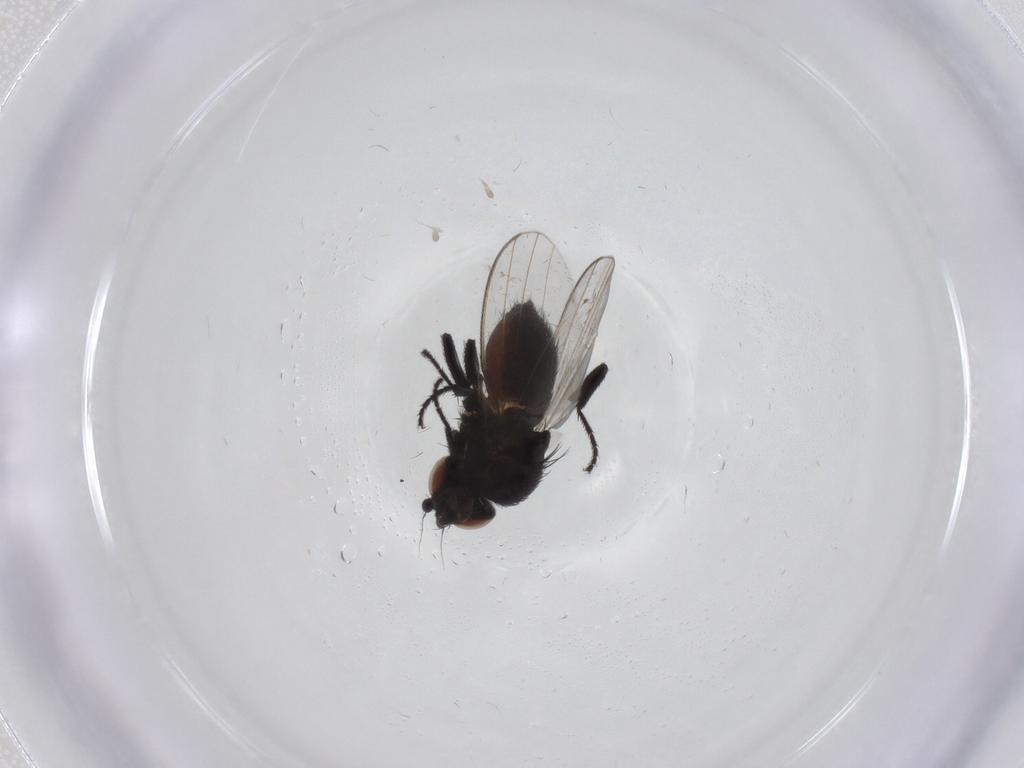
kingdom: Animalia
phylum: Arthropoda
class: Insecta
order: Diptera
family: Milichiidae
